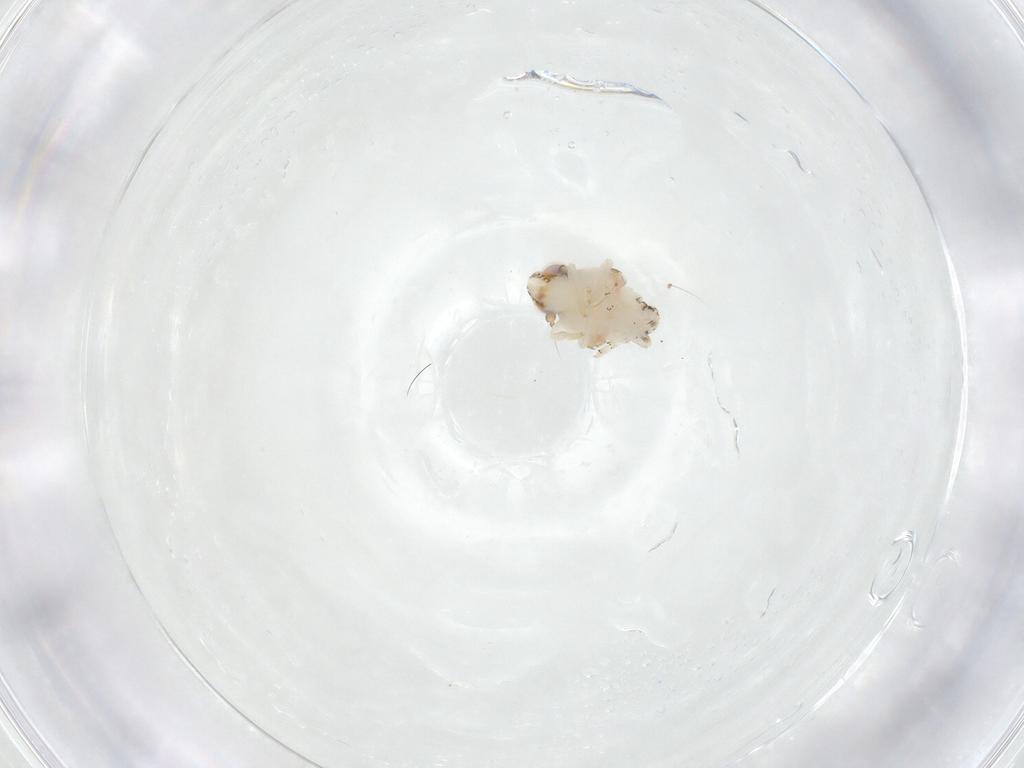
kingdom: Animalia
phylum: Arthropoda
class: Insecta
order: Hemiptera
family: Nogodinidae
